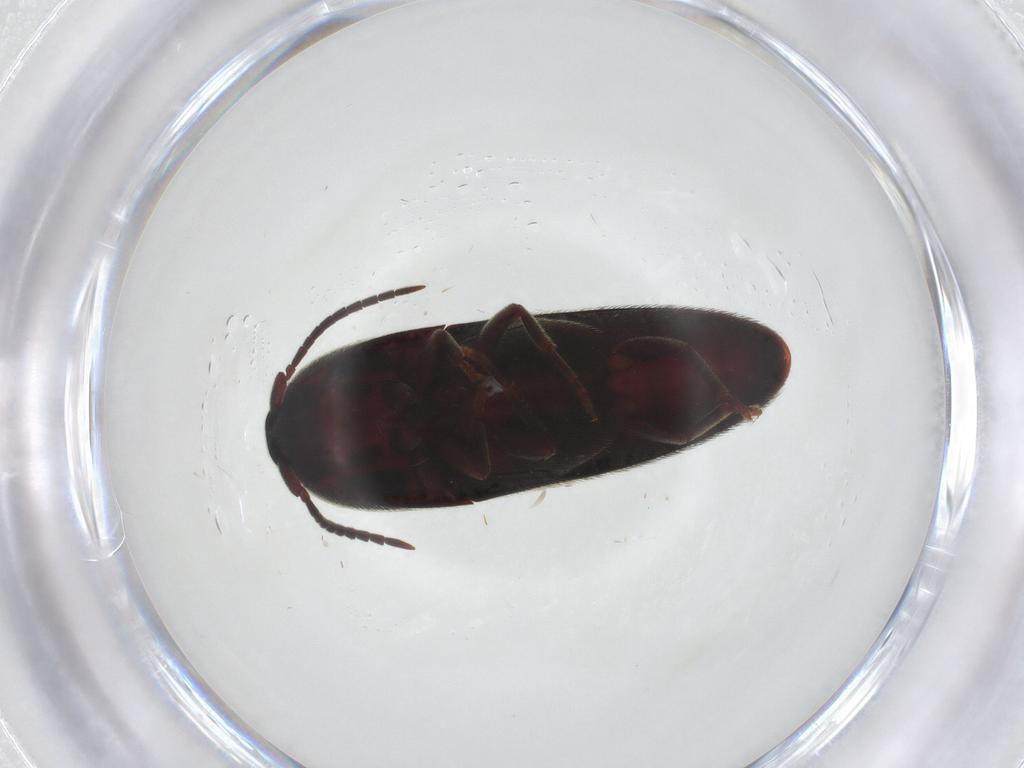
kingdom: Animalia
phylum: Arthropoda
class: Insecta
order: Coleoptera
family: Eucnemidae
